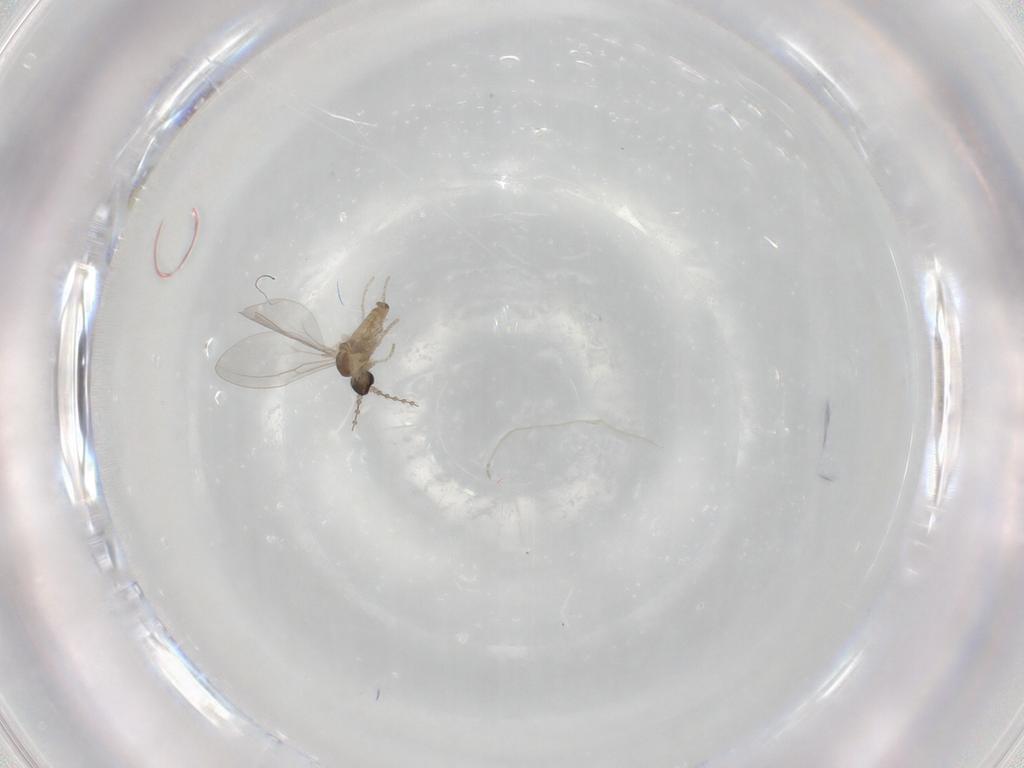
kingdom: Animalia
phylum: Arthropoda
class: Insecta
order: Diptera
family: Cecidomyiidae
